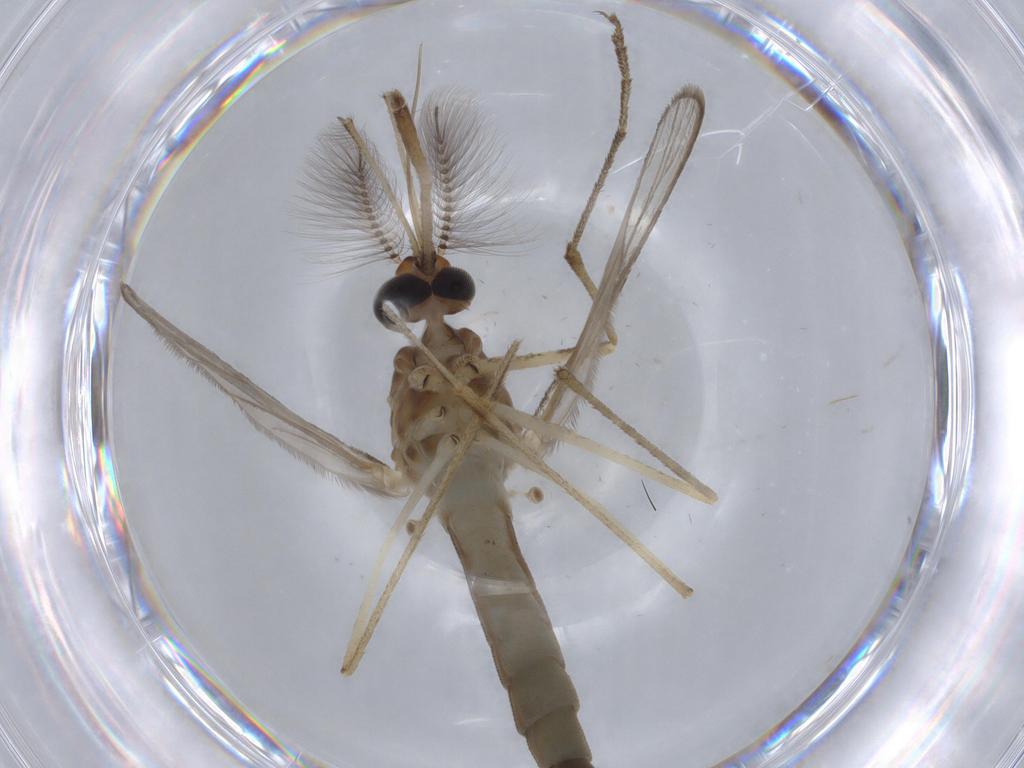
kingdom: Animalia
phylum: Arthropoda
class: Insecta
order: Diptera
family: Culicidae
